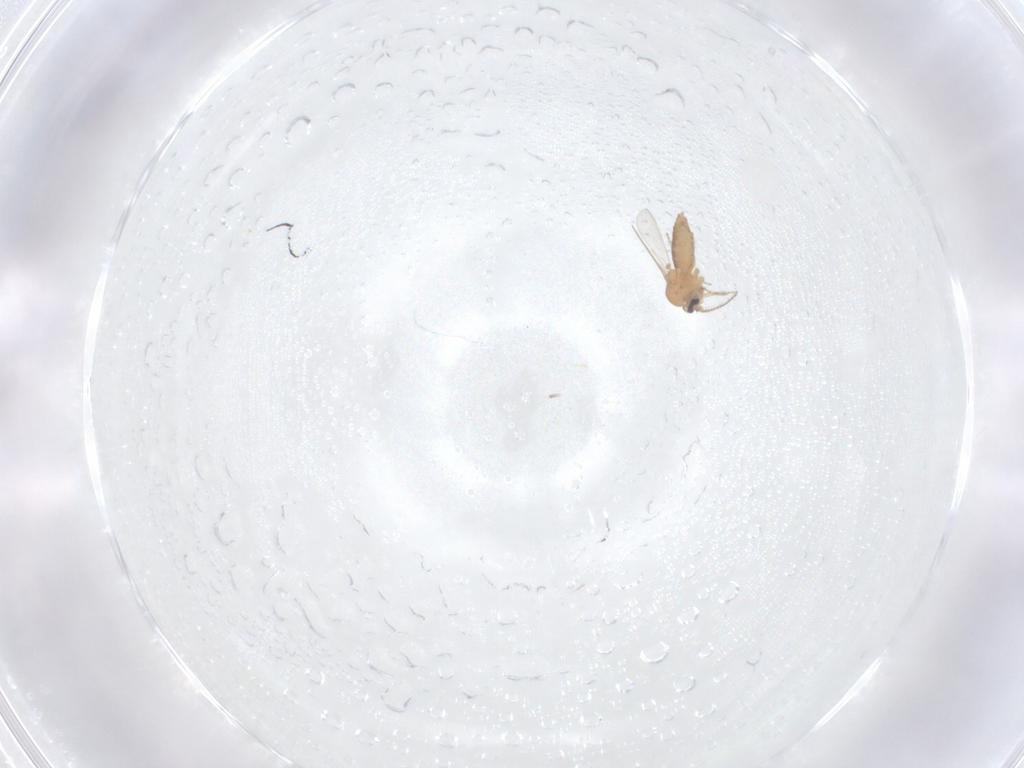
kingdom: Animalia
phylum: Arthropoda
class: Insecta
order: Diptera
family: Ceratopogonidae
